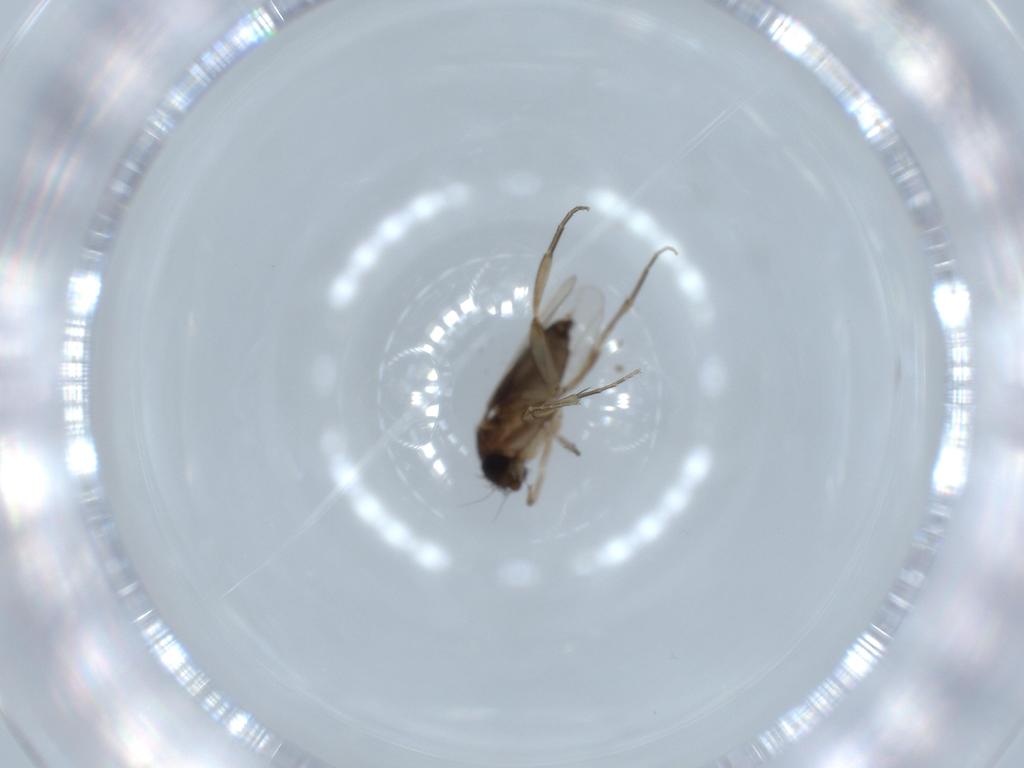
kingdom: Animalia
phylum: Arthropoda
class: Insecta
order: Diptera
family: Phoridae
